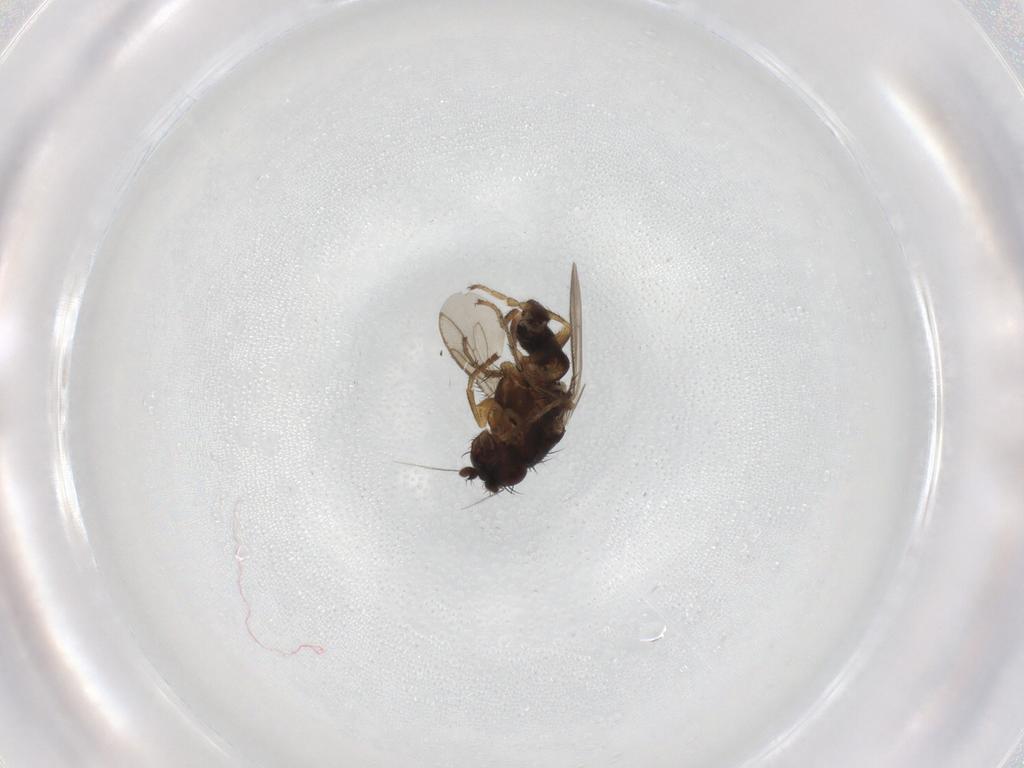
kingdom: Animalia
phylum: Arthropoda
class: Insecta
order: Diptera
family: Sphaeroceridae
